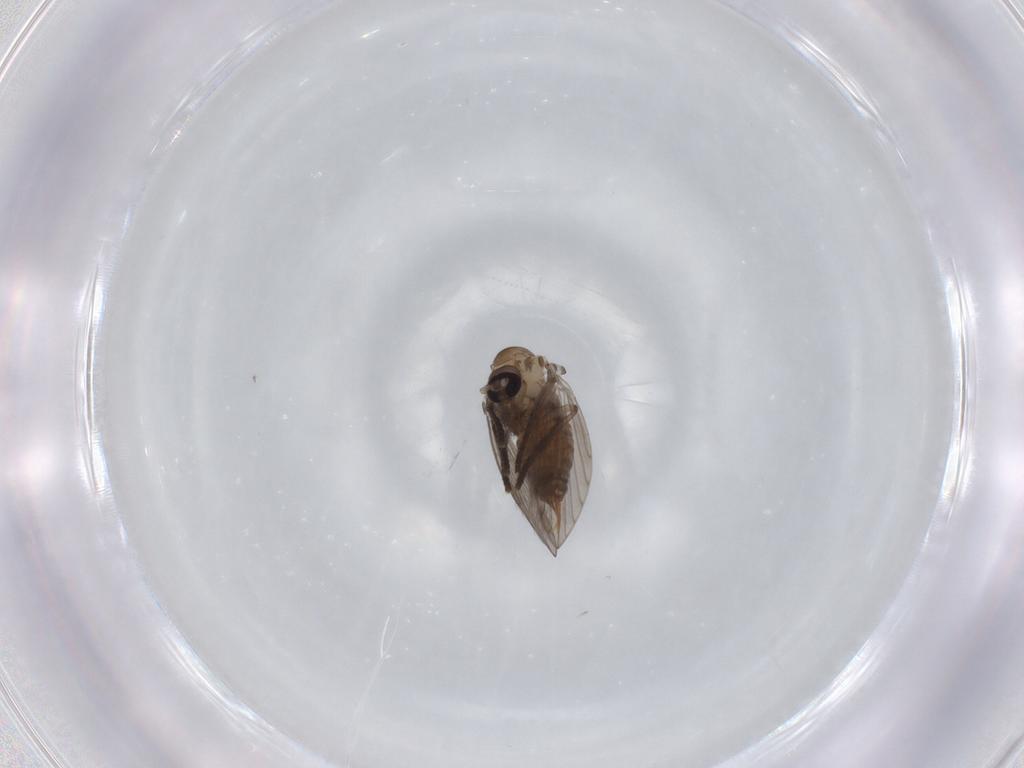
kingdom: Animalia
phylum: Arthropoda
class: Insecta
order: Diptera
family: Psychodidae
